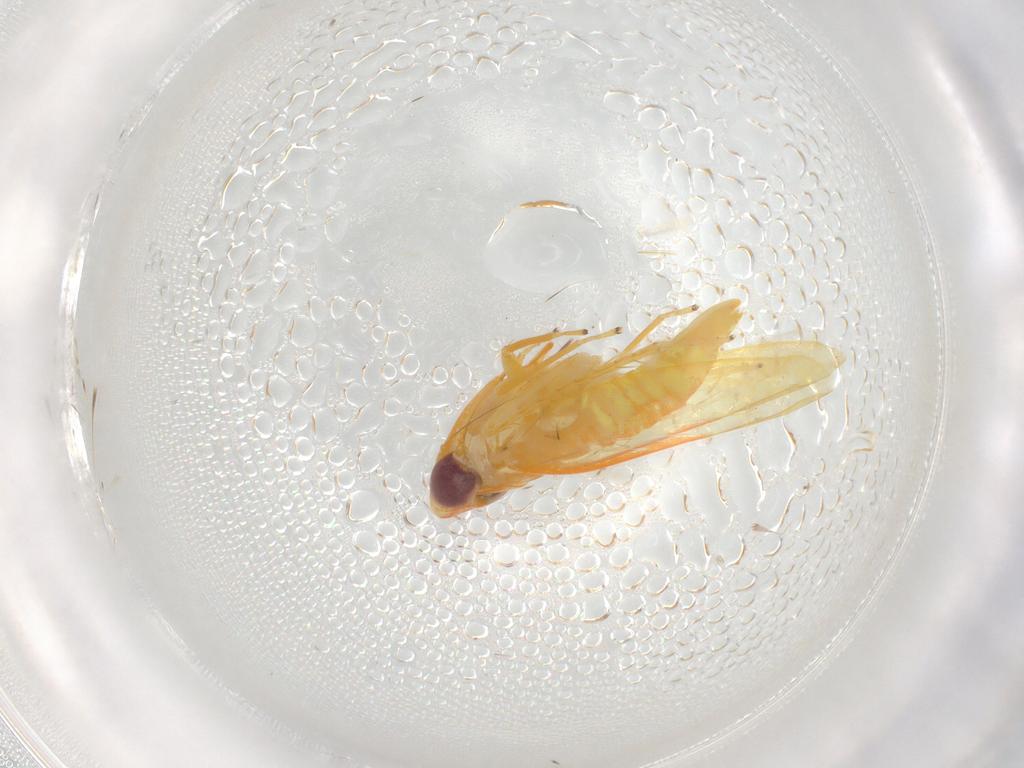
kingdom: Animalia
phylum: Arthropoda
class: Insecta
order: Hemiptera
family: Cicadellidae
